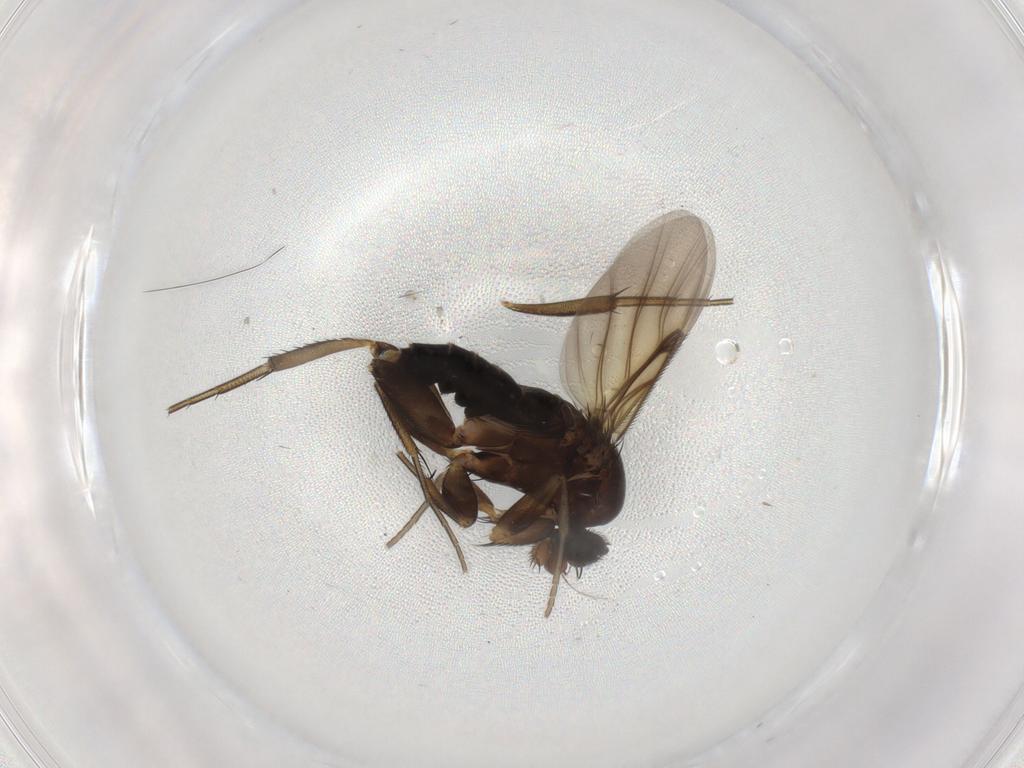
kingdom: Animalia
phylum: Arthropoda
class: Insecta
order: Diptera
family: Phoridae
